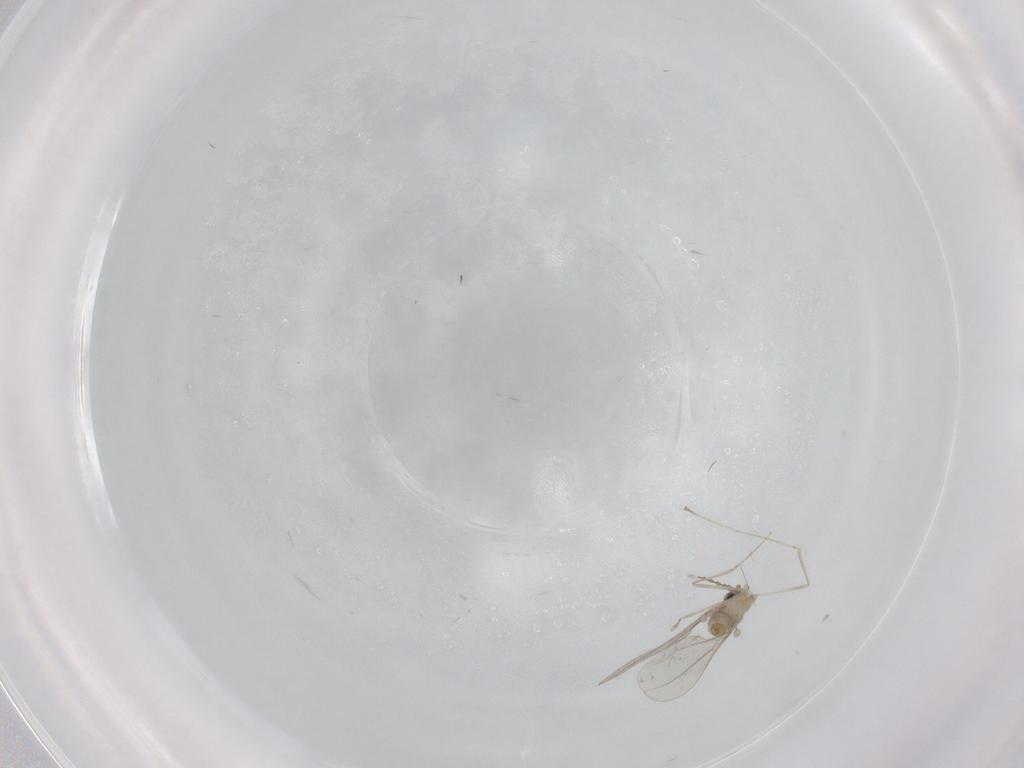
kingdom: Animalia
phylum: Arthropoda
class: Insecta
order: Diptera
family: Cecidomyiidae
